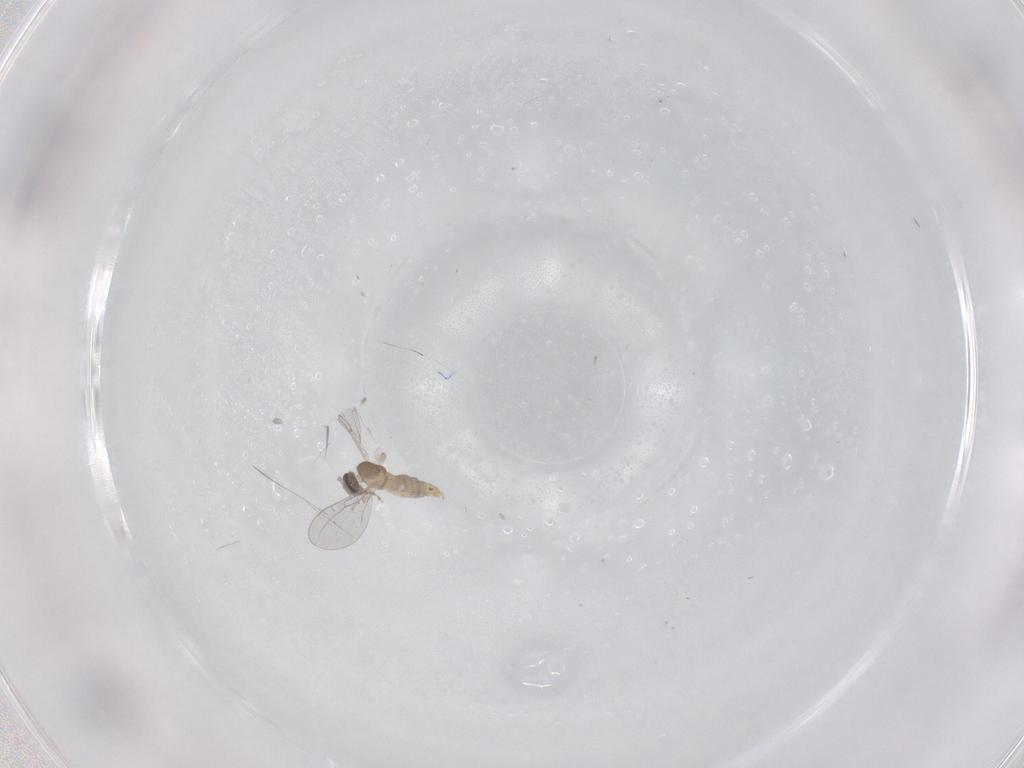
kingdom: Animalia
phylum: Arthropoda
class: Insecta
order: Diptera
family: Cecidomyiidae
